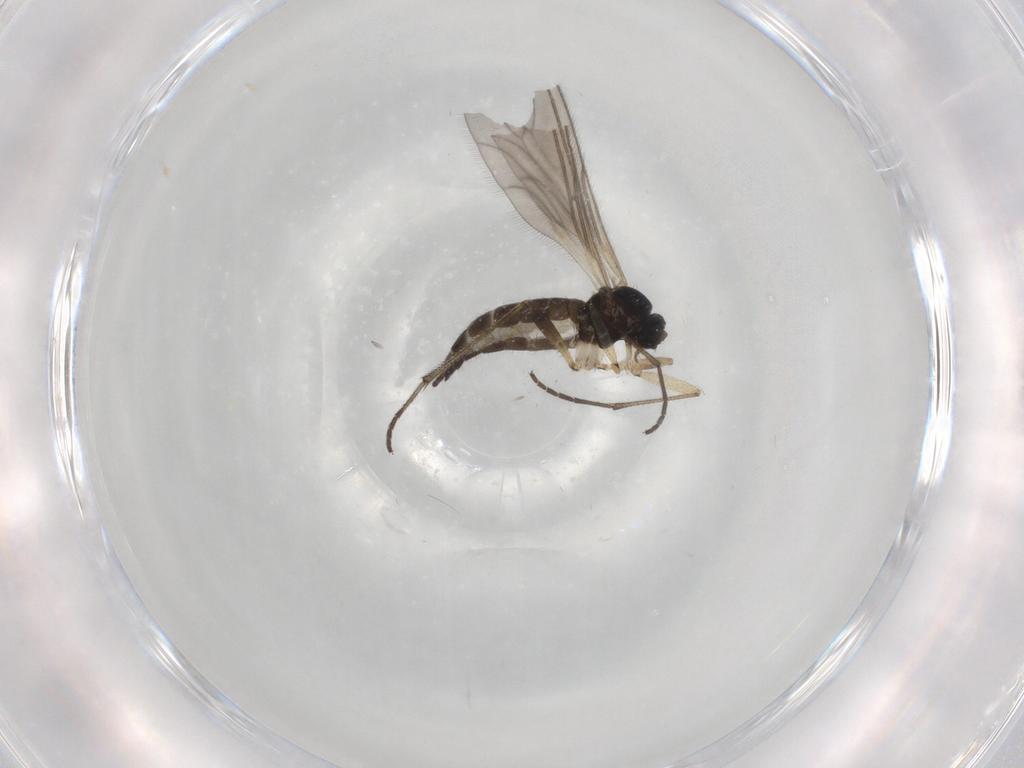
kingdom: Animalia
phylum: Arthropoda
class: Insecta
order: Diptera
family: Sciaridae
